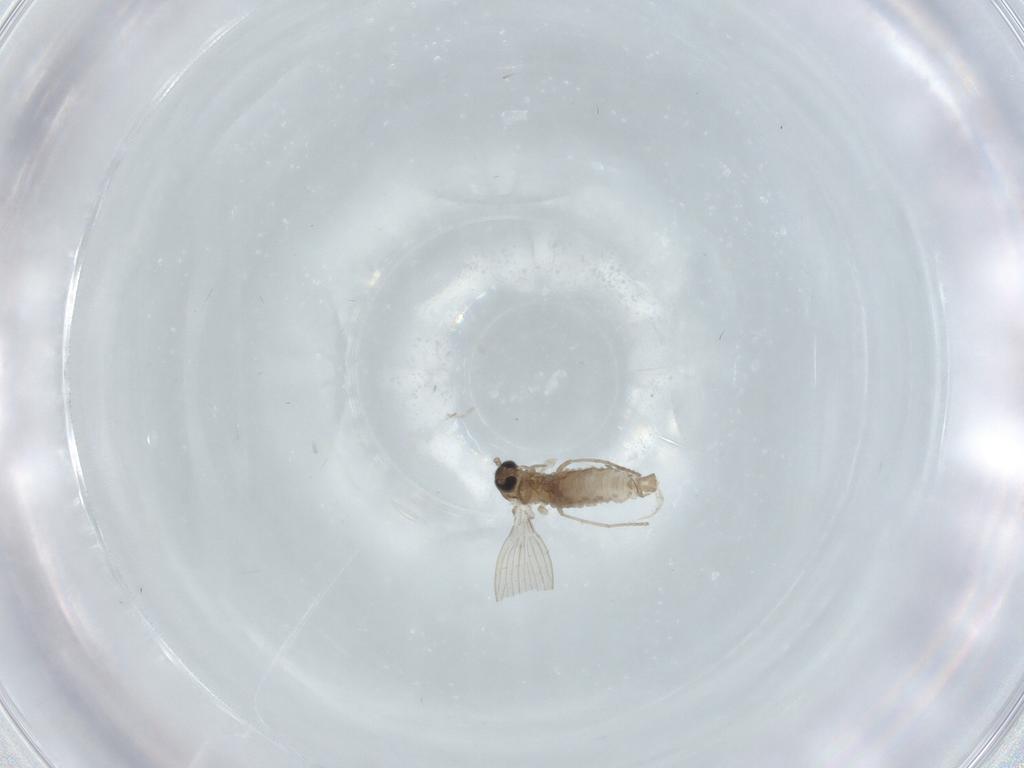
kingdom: Animalia
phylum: Arthropoda
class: Insecta
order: Diptera
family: Psychodidae
